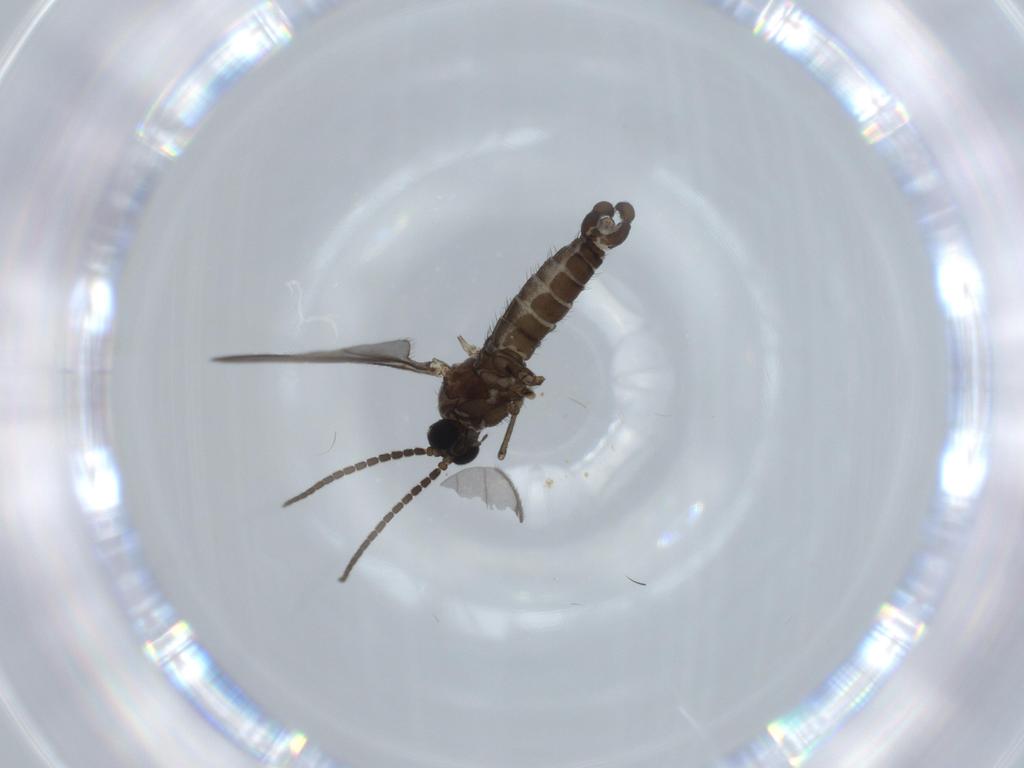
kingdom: Animalia
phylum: Arthropoda
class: Insecta
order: Diptera
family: Sciaridae
